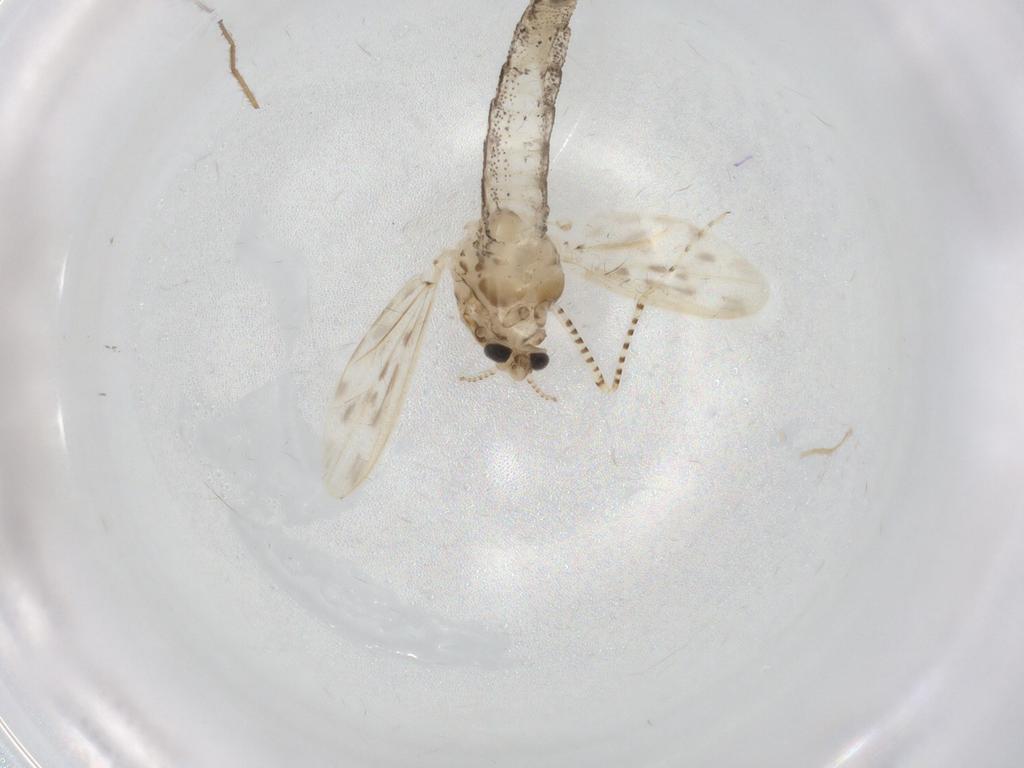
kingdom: Animalia
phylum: Arthropoda
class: Insecta
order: Diptera
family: Chaoboridae
